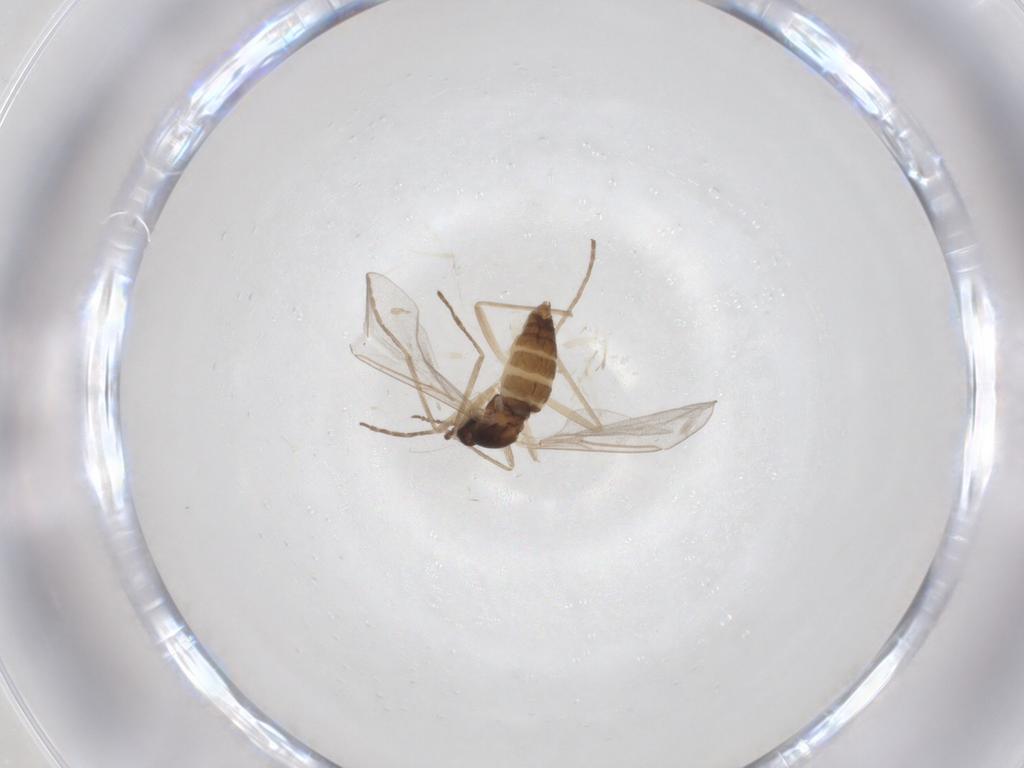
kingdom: Animalia
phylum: Arthropoda
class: Insecta
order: Diptera
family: Cecidomyiidae
